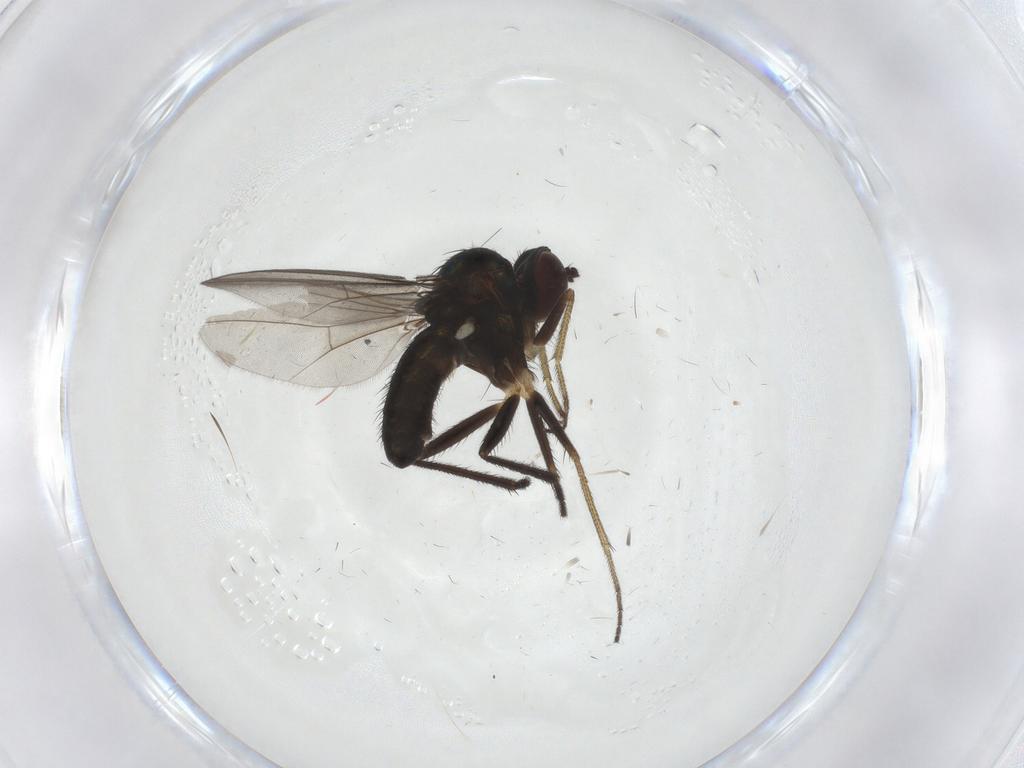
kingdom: Animalia
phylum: Arthropoda
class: Insecta
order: Diptera
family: Dolichopodidae
